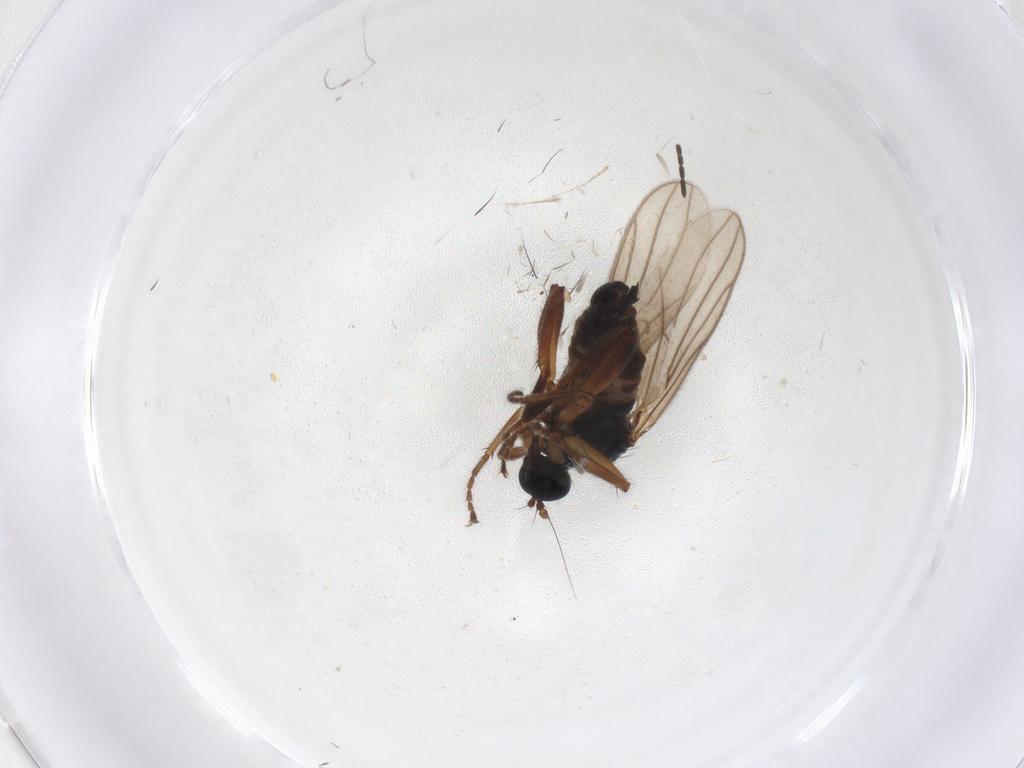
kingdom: Animalia
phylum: Arthropoda
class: Insecta
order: Diptera
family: Hybotidae
